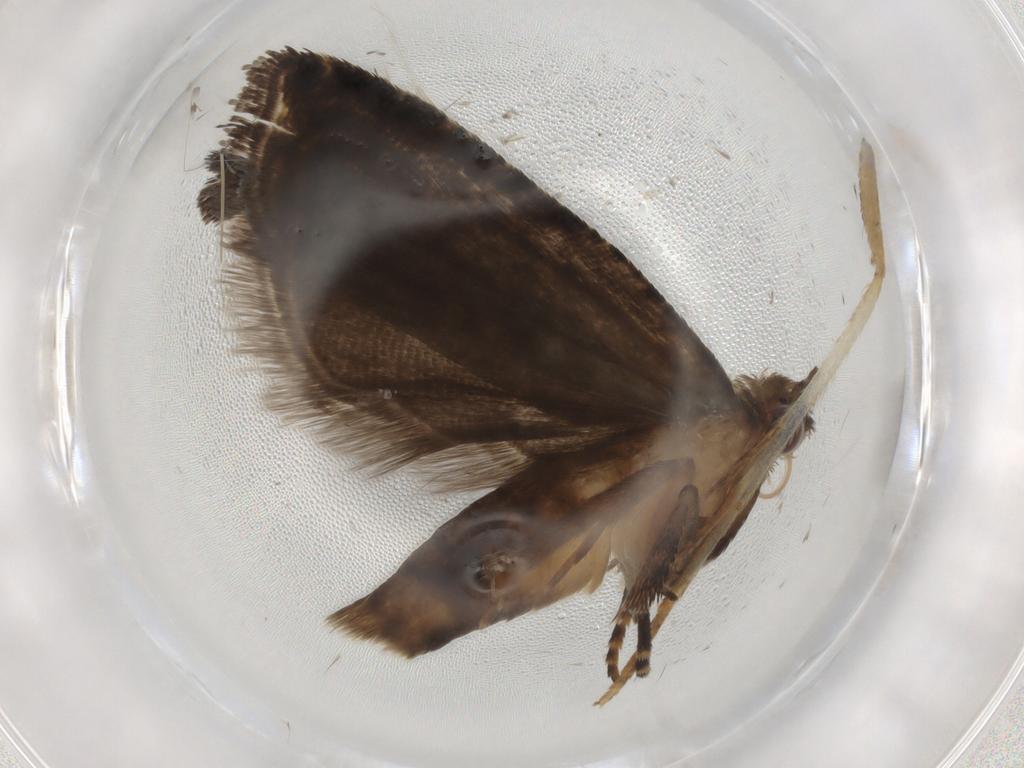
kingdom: Animalia
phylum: Arthropoda
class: Insecta
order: Lepidoptera
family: Tortricidae
